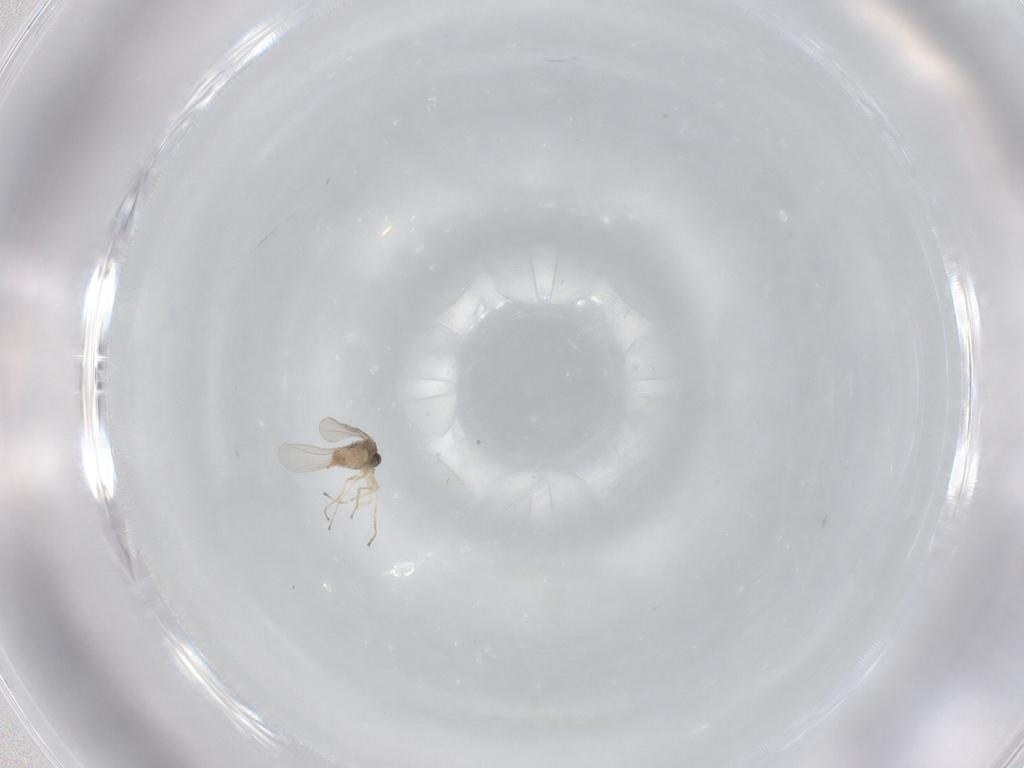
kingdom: Animalia
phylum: Arthropoda
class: Insecta
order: Diptera
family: Cecidomyiidae
